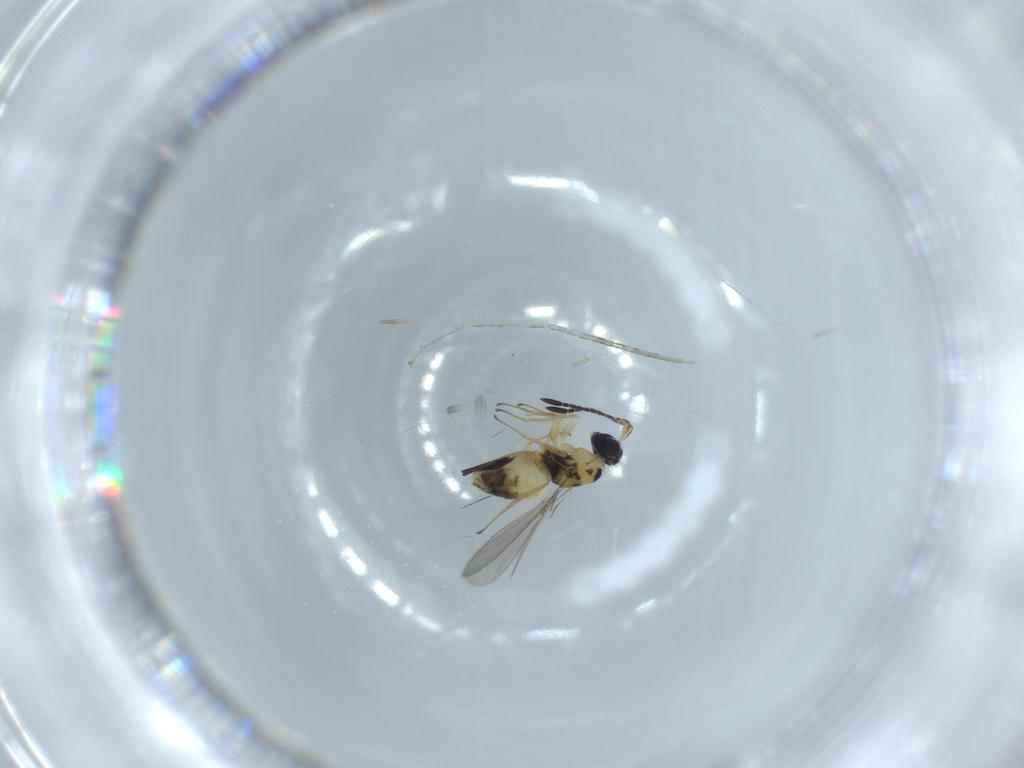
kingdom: Animalia
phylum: Arthropoda
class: Insecta
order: Hymenoptera
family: Mymaridae
